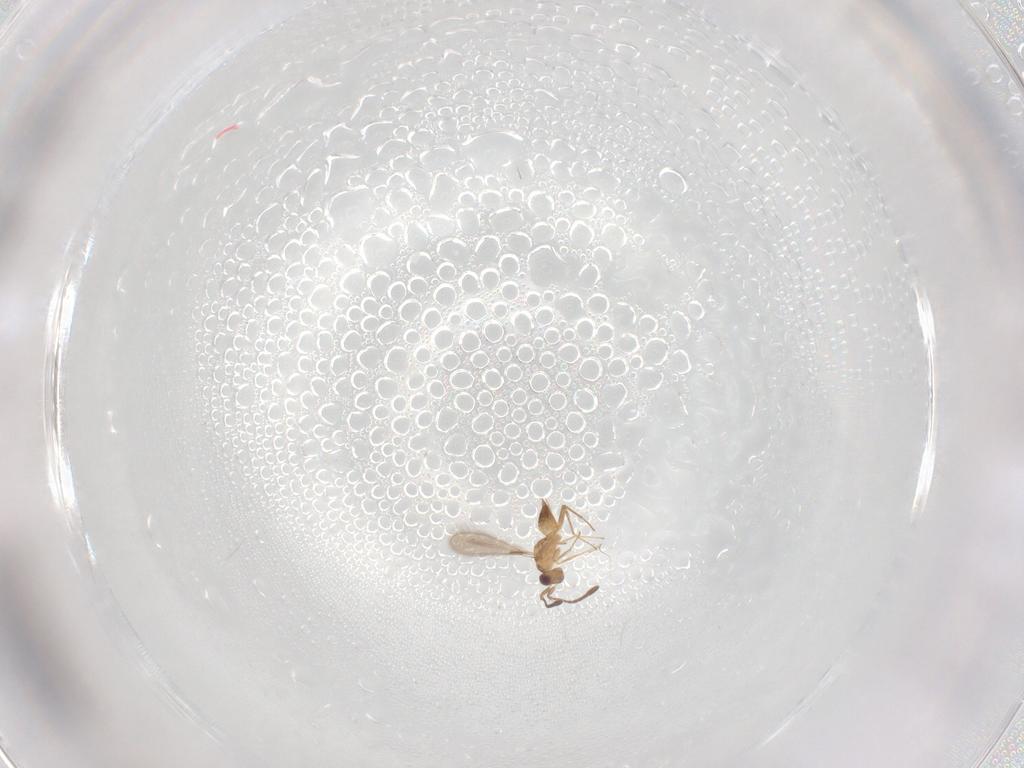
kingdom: Animalia
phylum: Arthropoda
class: Insecta
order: Hymenoptera
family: Mymaridae
